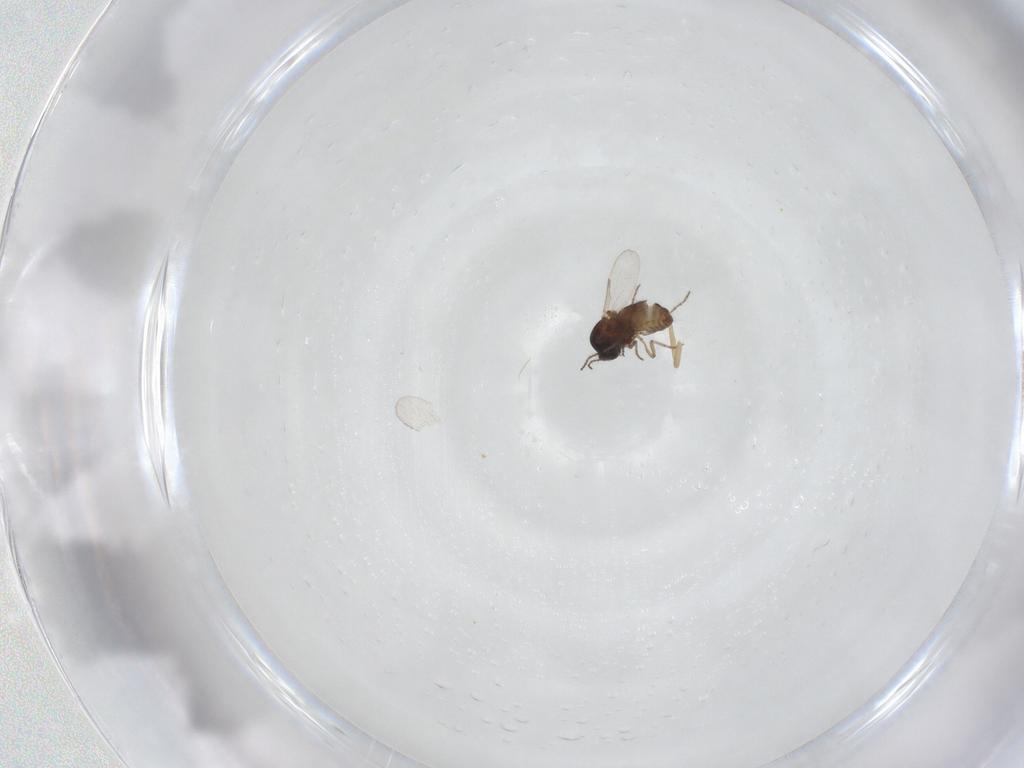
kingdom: Animalia
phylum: Arthropoda
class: Insecta
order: Diptera
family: Ceratopogonidae
